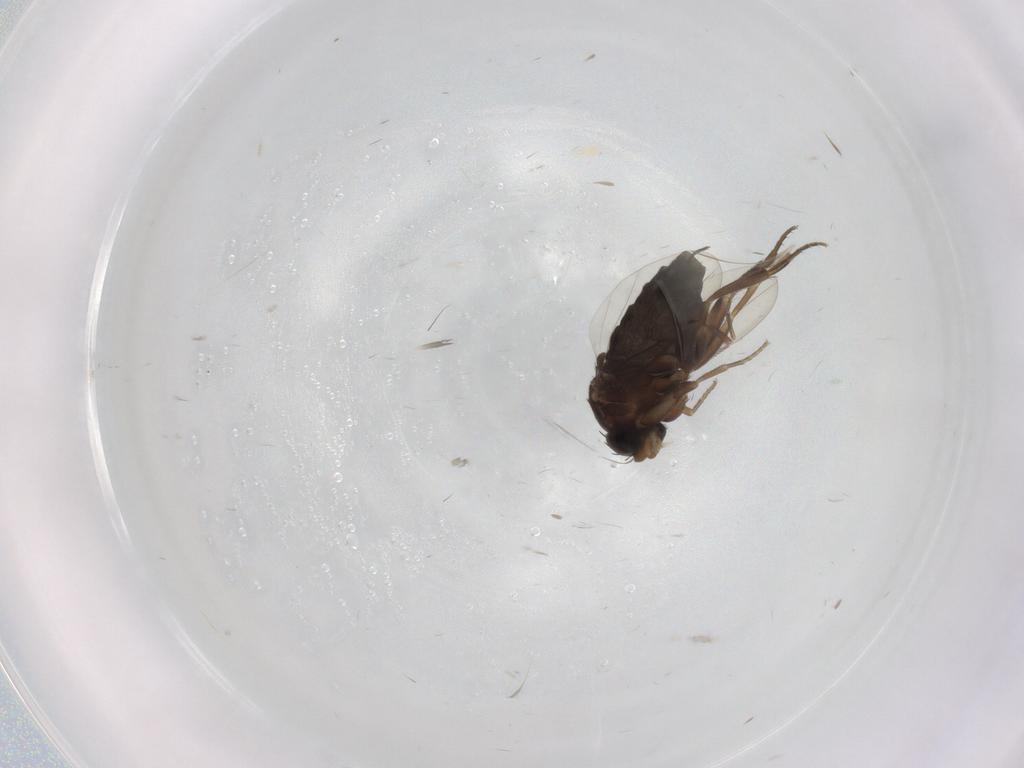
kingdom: Animalia
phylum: Arthropoda
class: Insecta
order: Diptera
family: Phoridae
